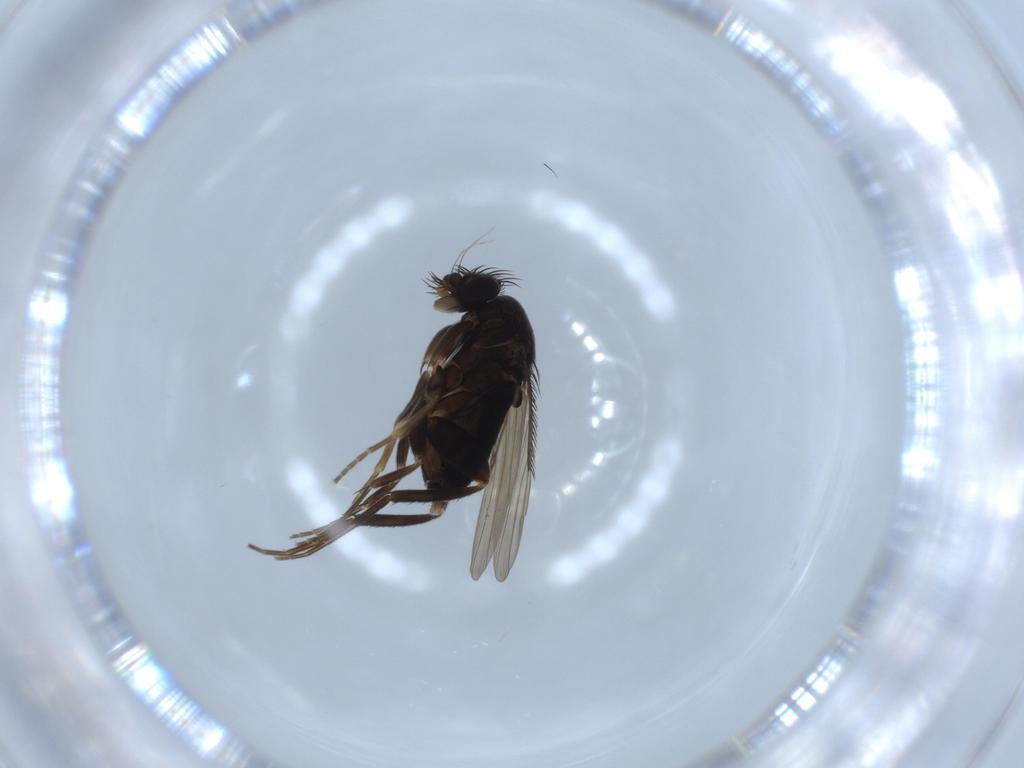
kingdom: Animalia
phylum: Arthropoda
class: Insecta
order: Diptera
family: Phoridae
